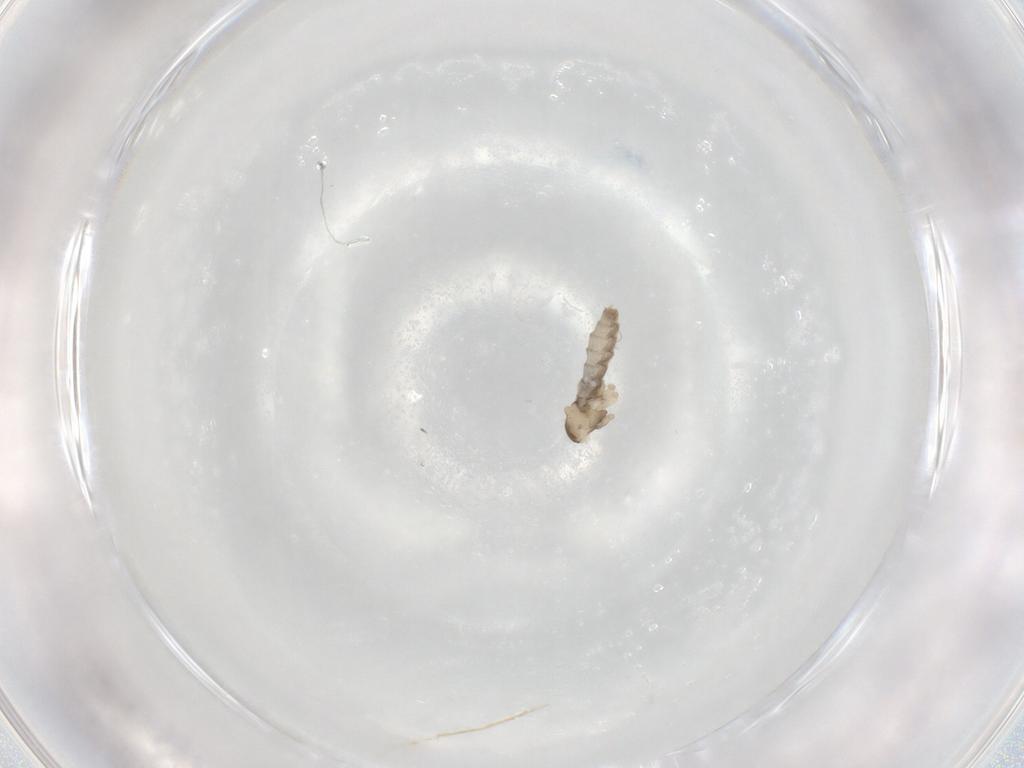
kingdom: Animalia
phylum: Arthropoda
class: Insecta
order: Diptera
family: Cecidomyiidae
